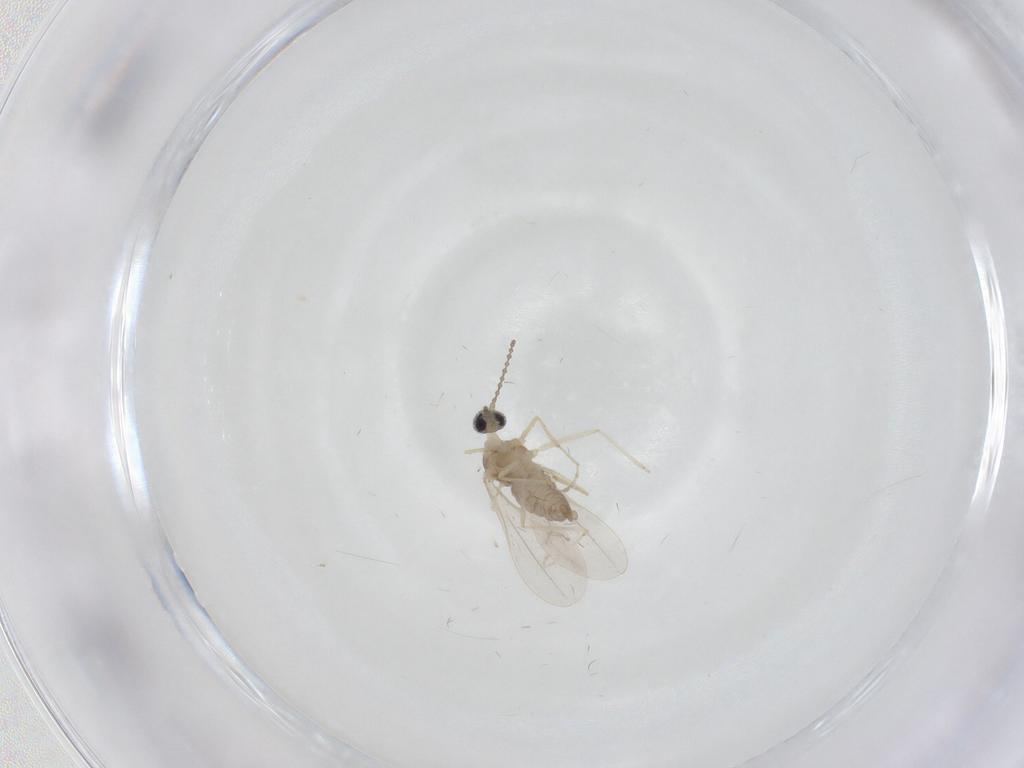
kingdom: Animalia
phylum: Arthropoda
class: Insecta
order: Diptera
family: Cecidomyiidae
